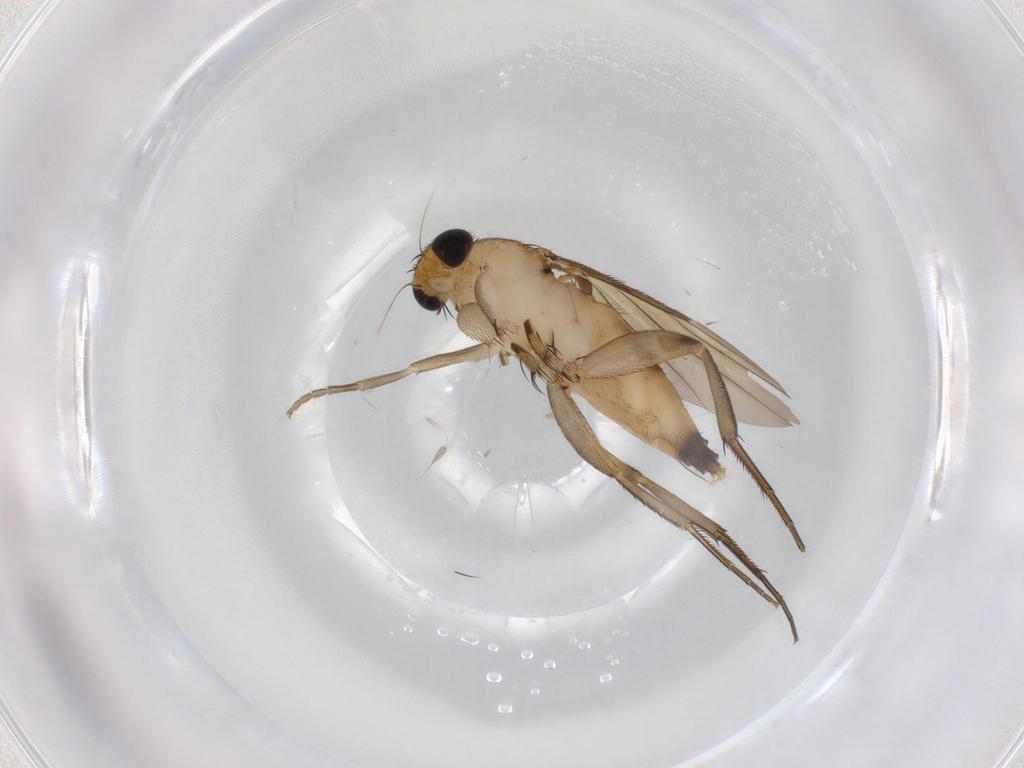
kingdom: Animalia
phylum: Arthropoda
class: Insecta
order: Diptera
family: Phoridae
